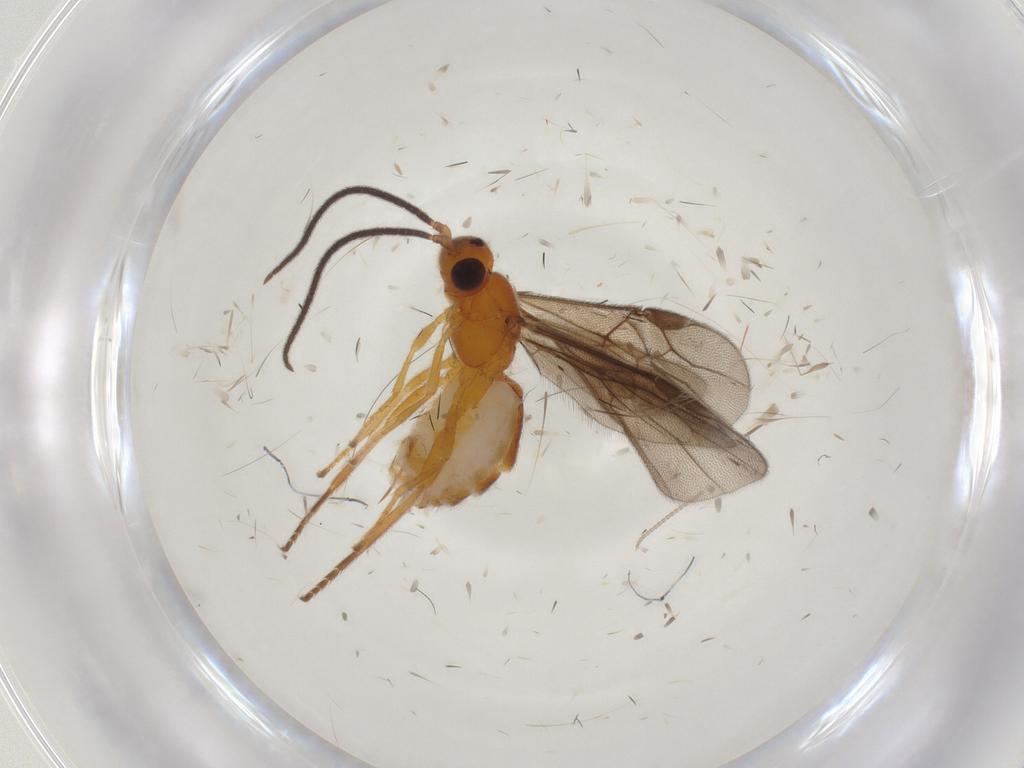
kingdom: Animalia
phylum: Arthropoda
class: Insecta
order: Hymenoptera
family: Braconidae
